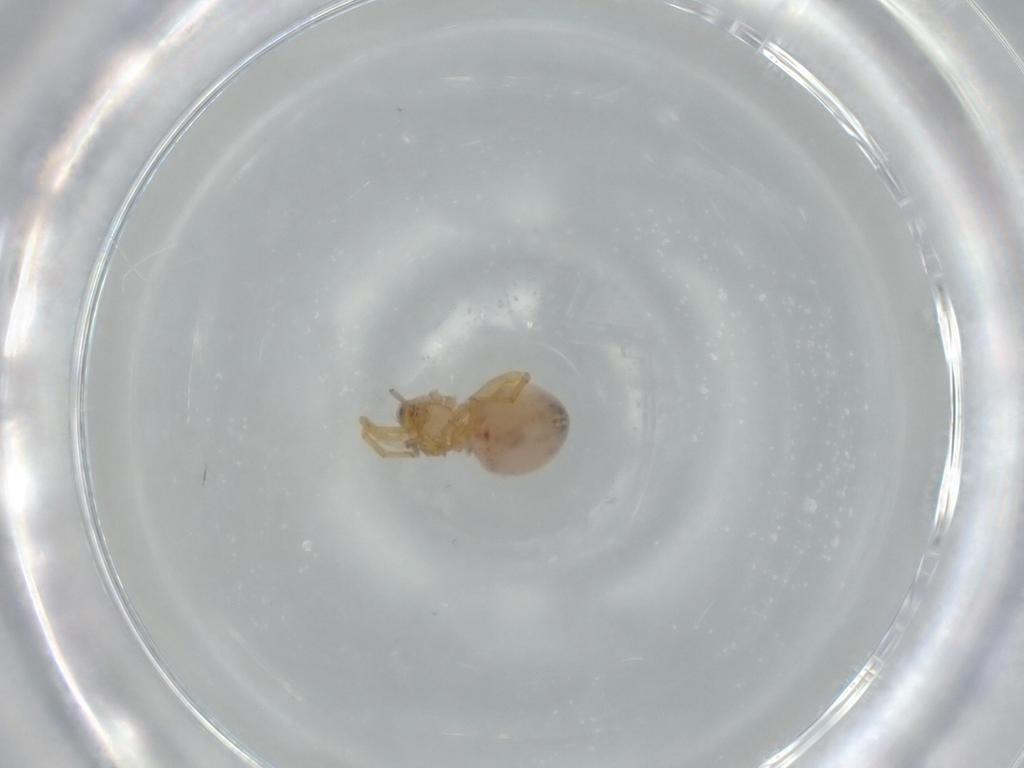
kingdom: Animalia
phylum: Arthropoda
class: Arachnida
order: Araneae
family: Oonopidae
